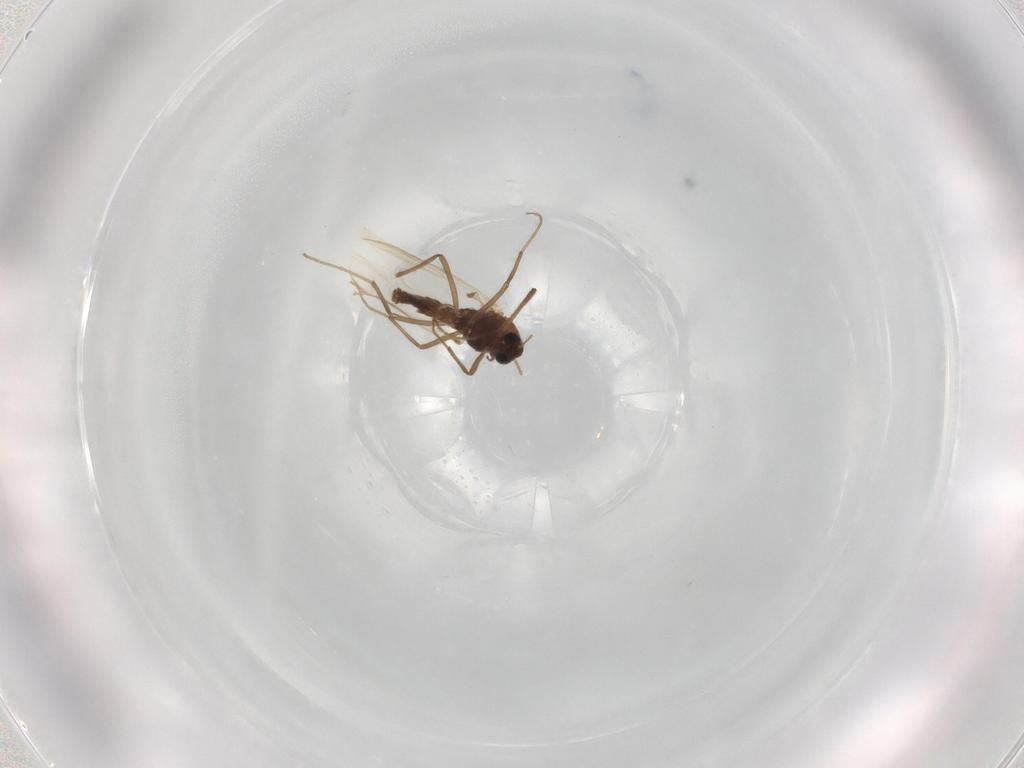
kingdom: Animalia
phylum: Arthropoda
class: Insecta
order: Diptera
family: Chironomidae
